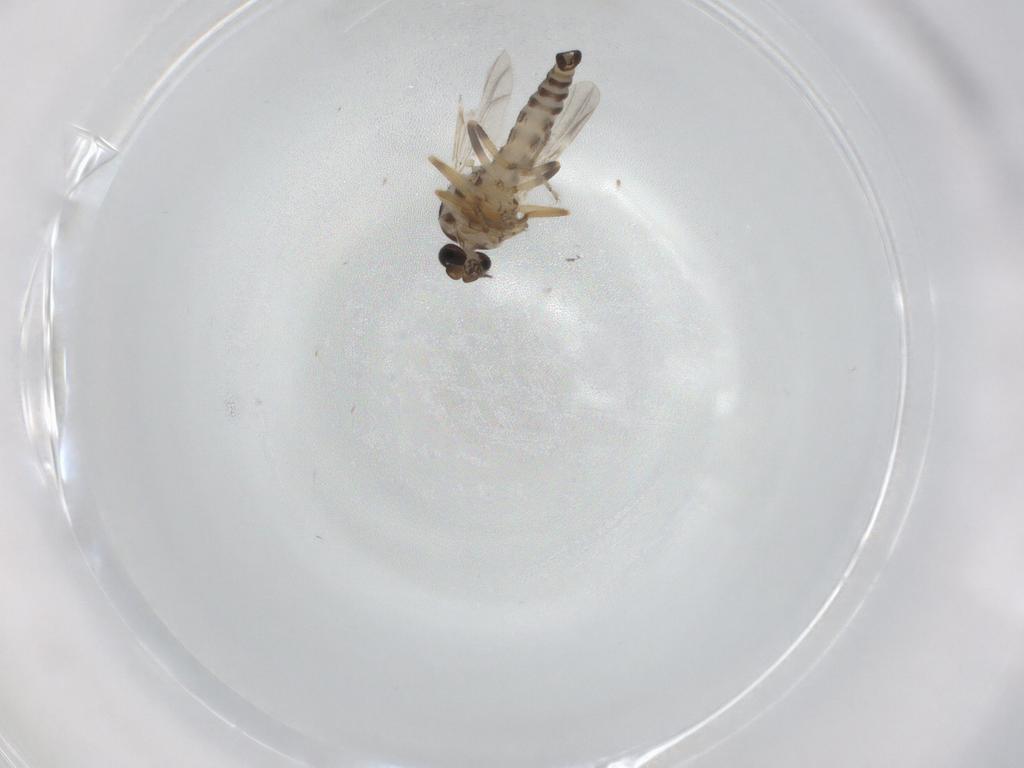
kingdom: Animalia
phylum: Arthropoda
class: Insecta
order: Diptera
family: Ceratopogonidae
